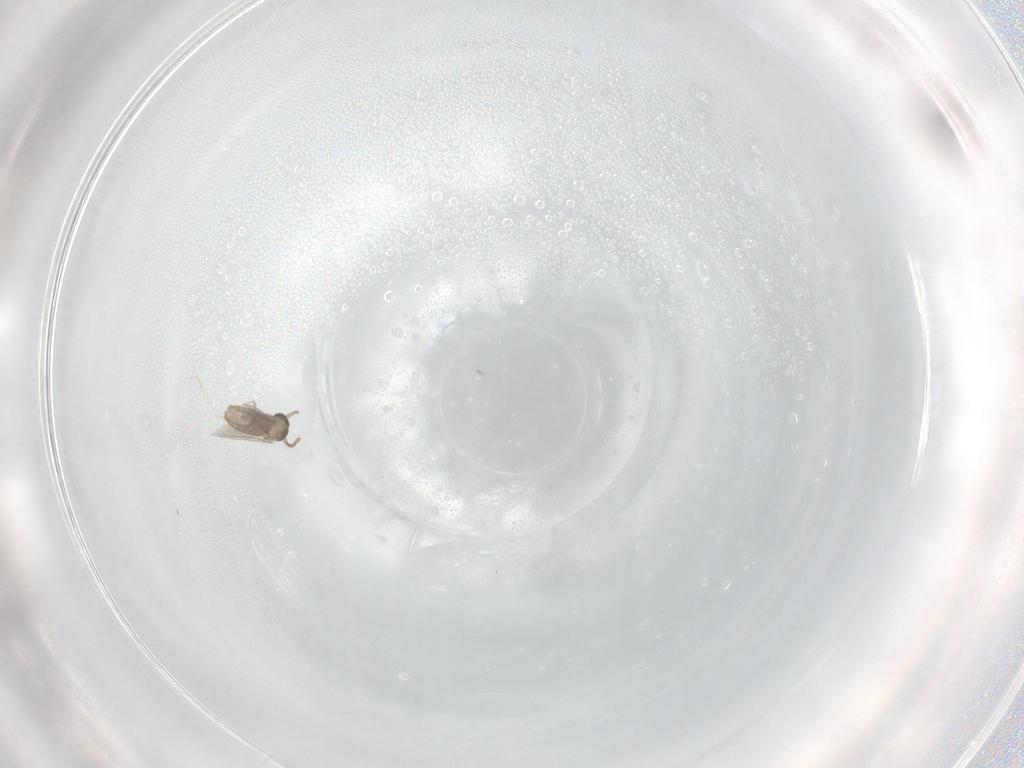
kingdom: Animalia
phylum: Arthropoda
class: Insecta
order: Diptera
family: Cecidomyiidae
